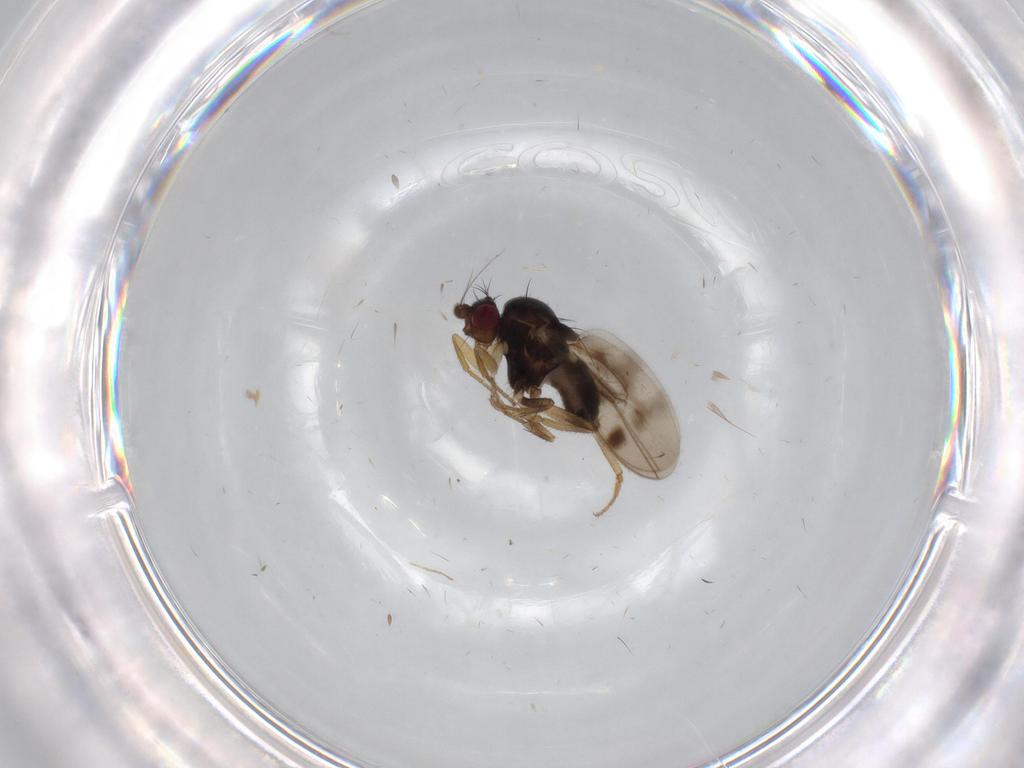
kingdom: Animalia
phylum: Arthropoda
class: Insecta
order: Diptera
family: Sphaeroceridae
